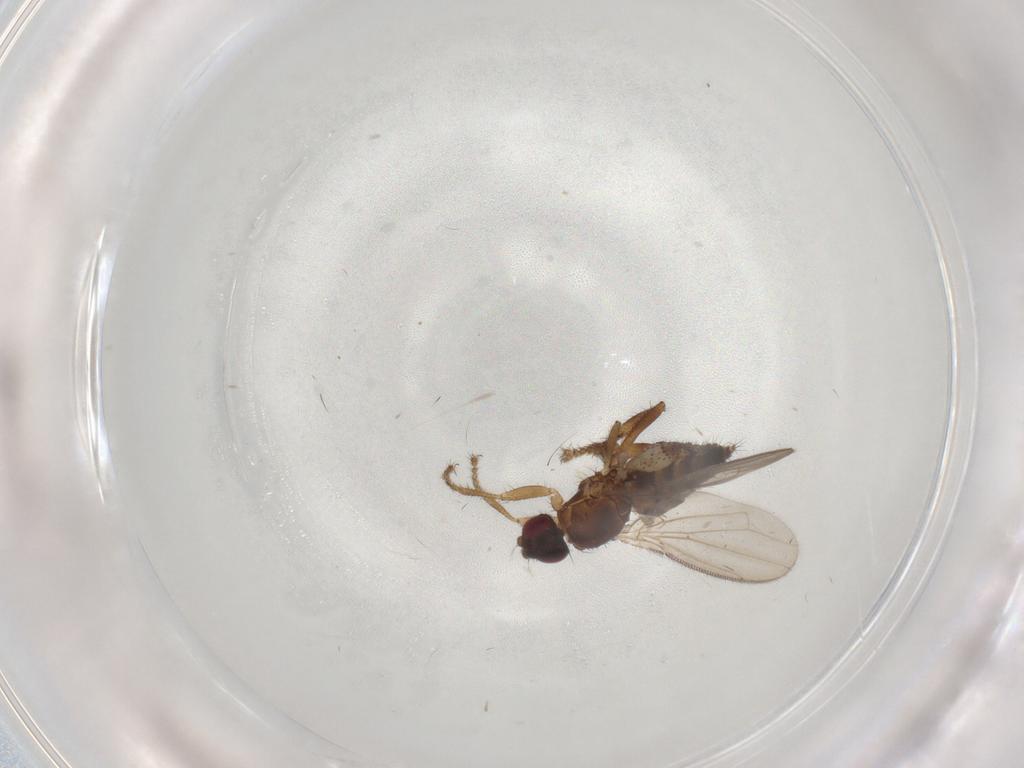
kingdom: Animalia
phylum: Arthropoda
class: Insecta
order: Diptera
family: Sphaeroceridae
